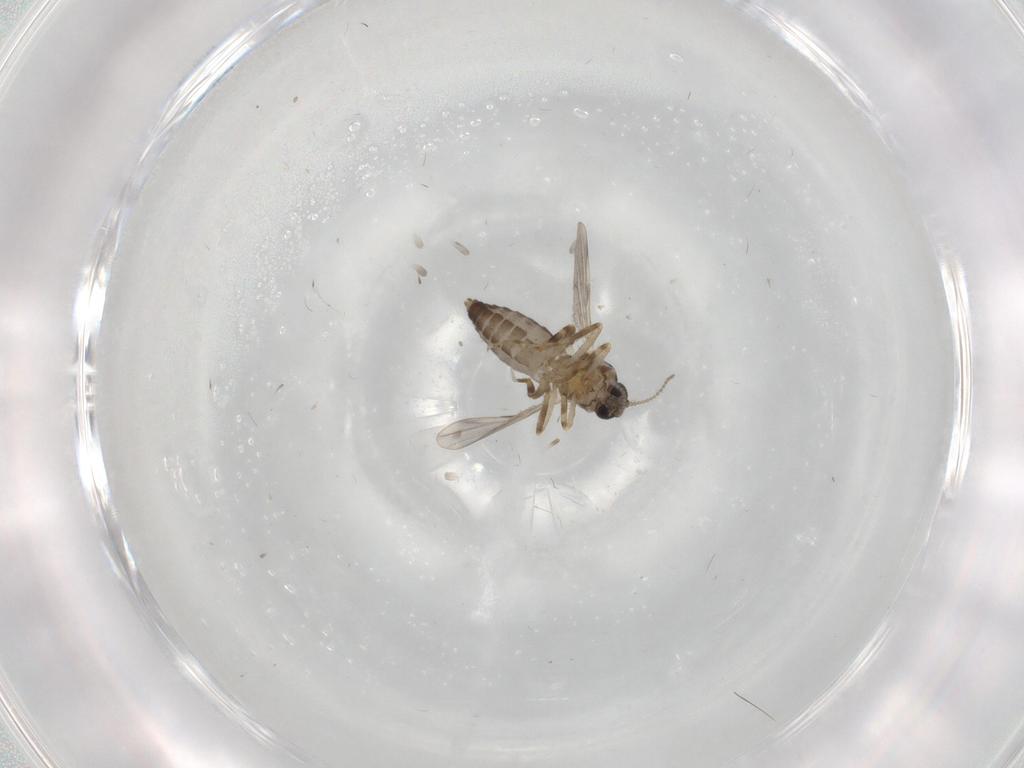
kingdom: Animalia
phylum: Arthropoda
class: Insecta
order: Diptera
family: Ceratopogonidae
